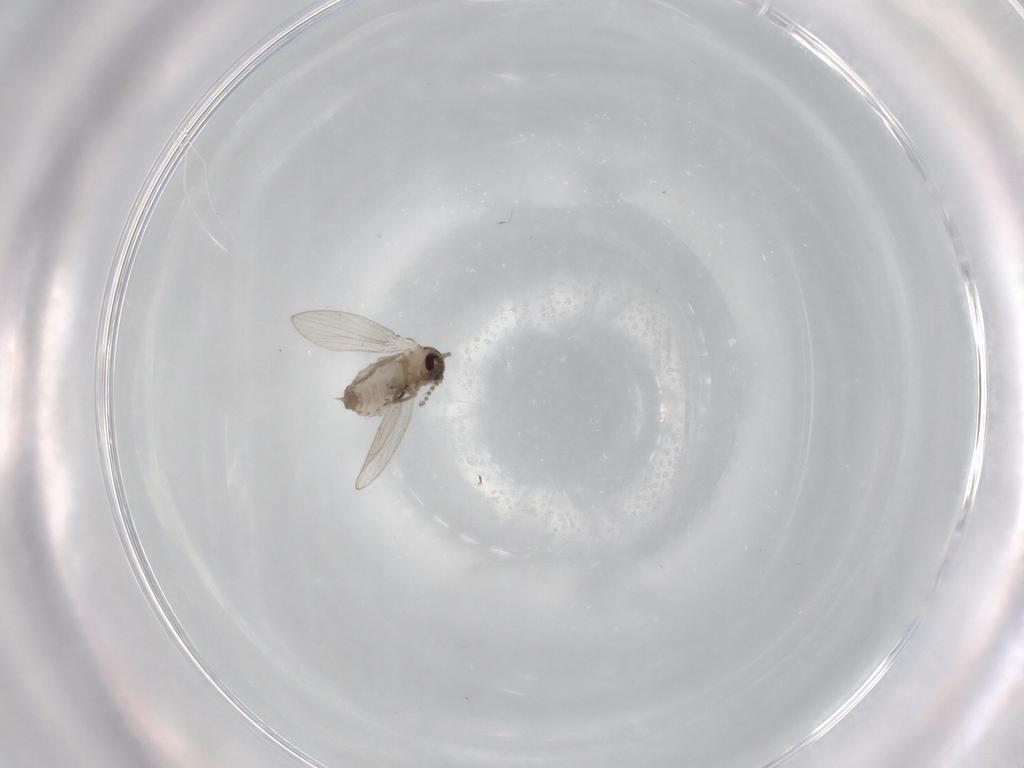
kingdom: Animalia
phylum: Arthropoda
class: Insecta
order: Diptera
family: Psychodidae
